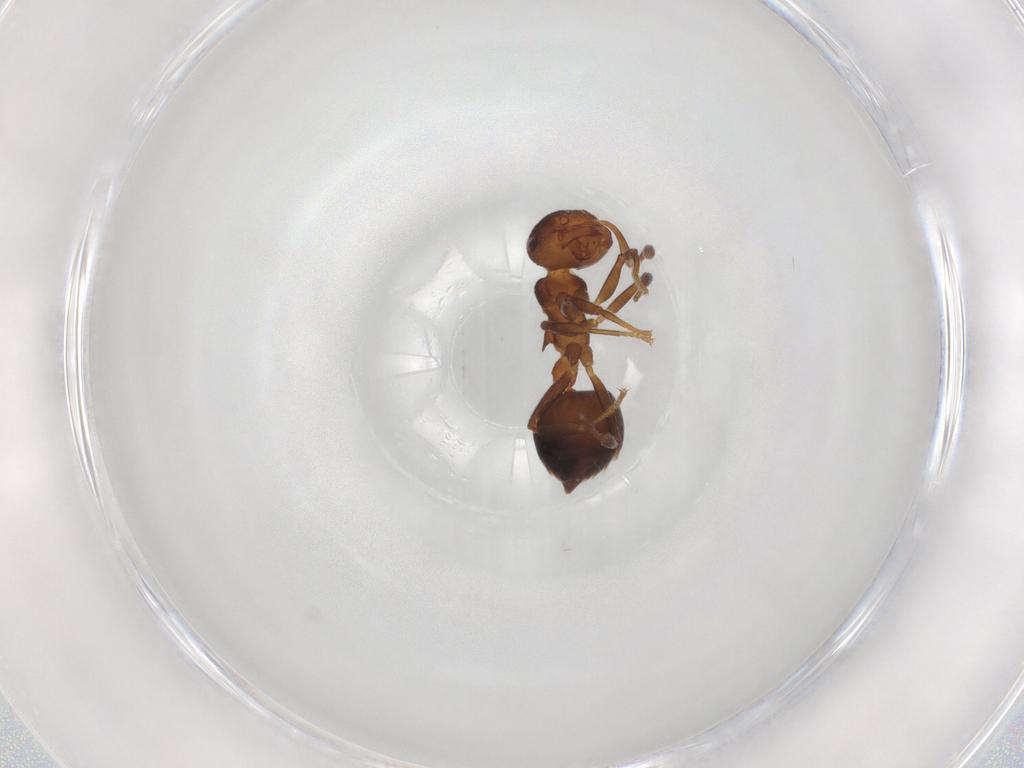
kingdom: Animalia
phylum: Arthropoda
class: Insecta
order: Hymenoptera
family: Formicidae
